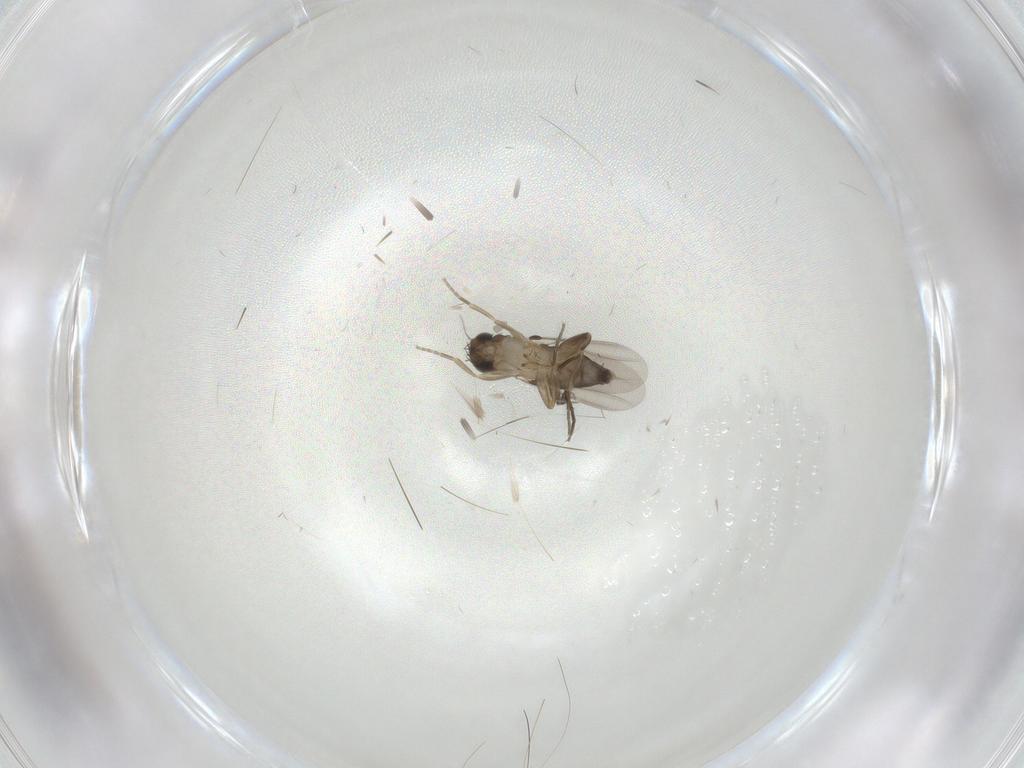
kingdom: Animalia
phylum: Arthropoda
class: Insecta
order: Diptera
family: Phoridae
